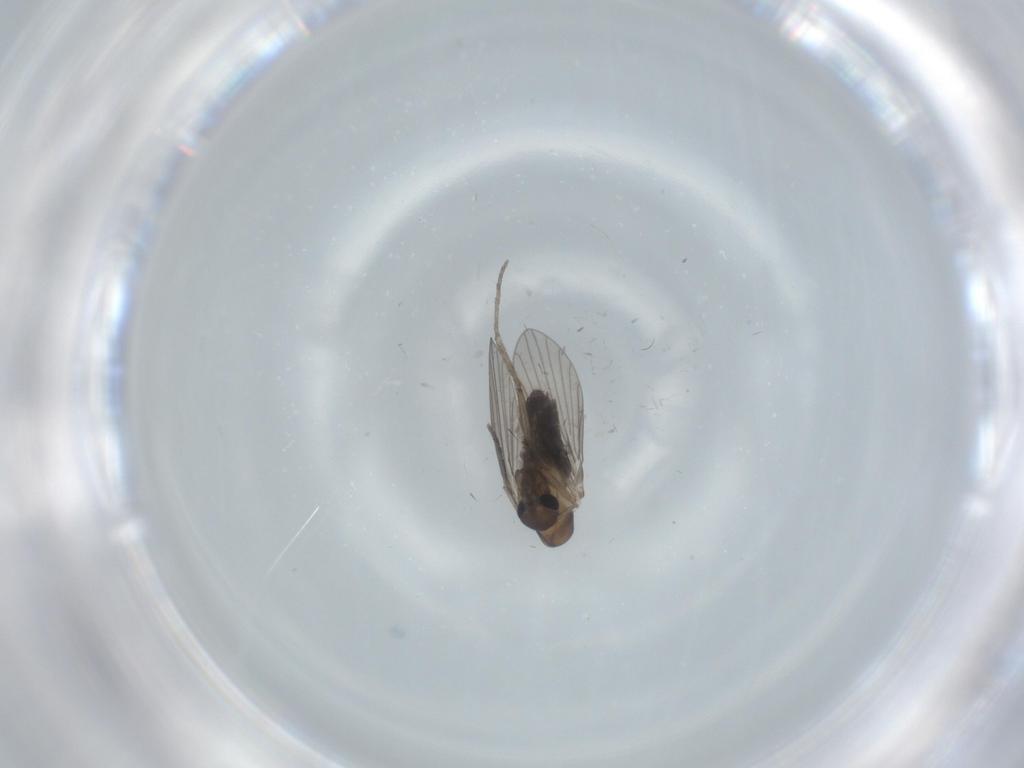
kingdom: Animalia
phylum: Arthropoda
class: Insecta
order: Diptera
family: Psychodidae
